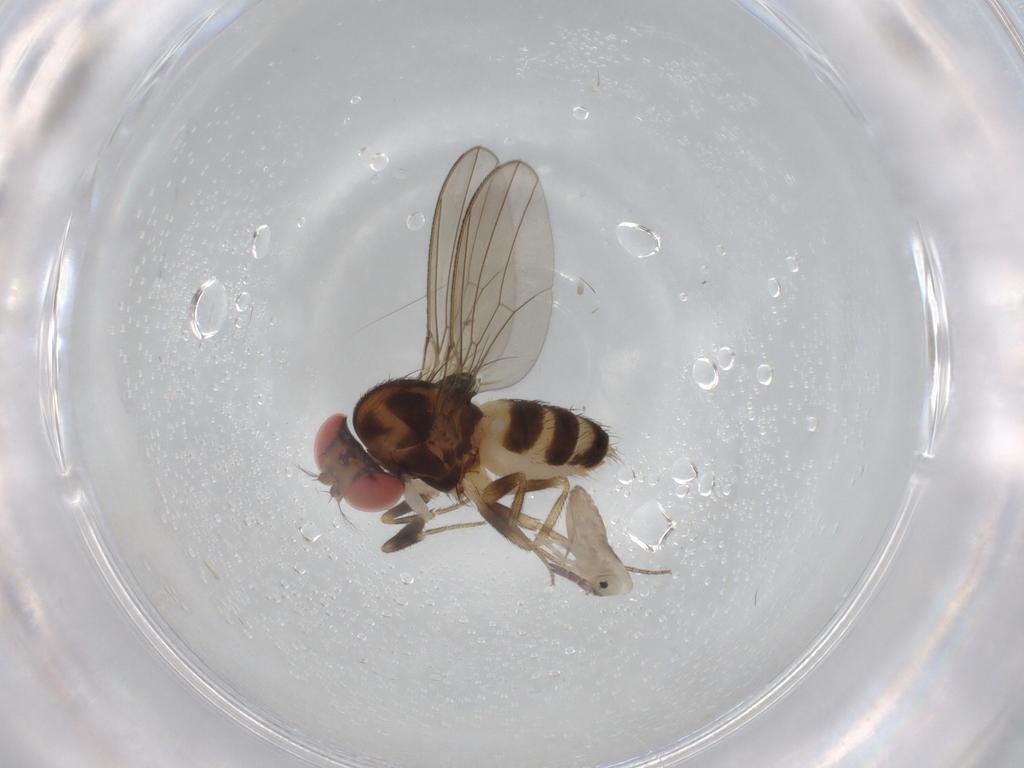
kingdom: Animalia
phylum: Arthropoda
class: Insecta
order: Diptera
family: Drosophilidae
